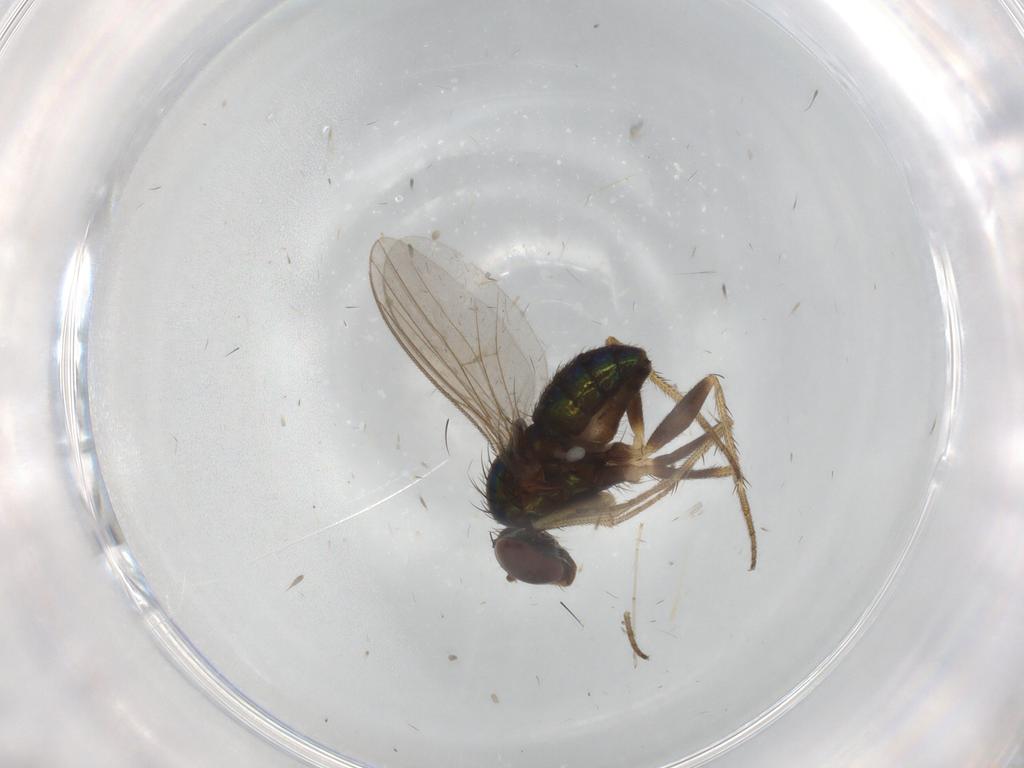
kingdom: Animalia
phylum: Arthropoda
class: Insecta
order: Diptera
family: Dolichopodidae
